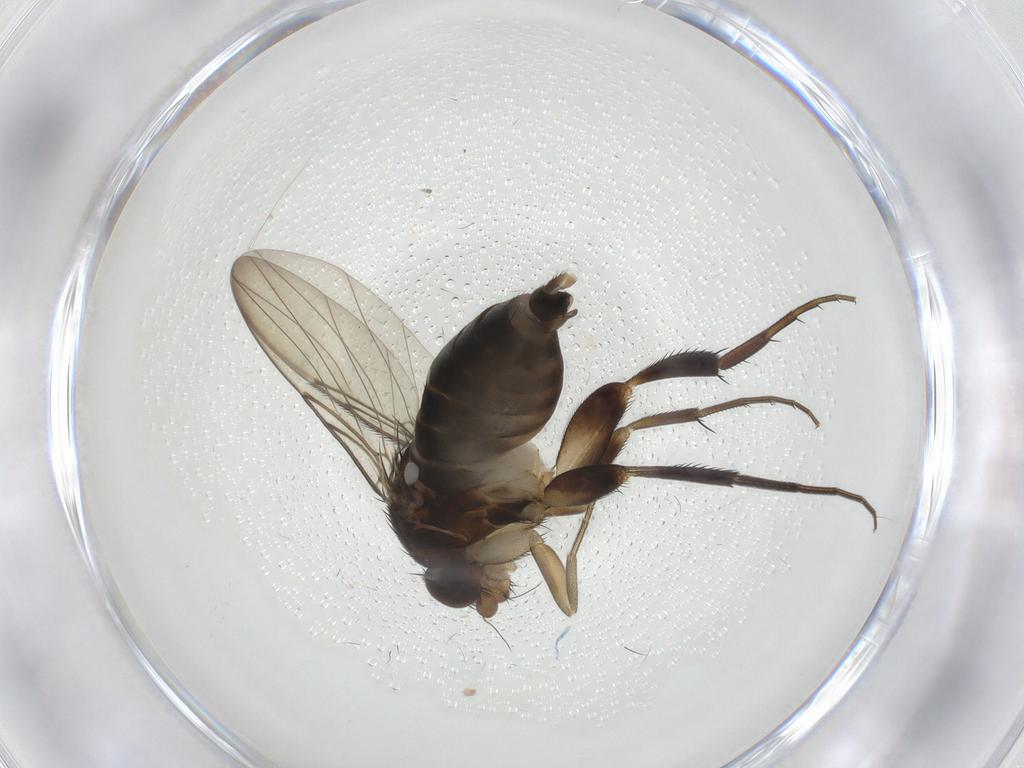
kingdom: Animalia
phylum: Arthropoda
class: Insecta
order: Diptera
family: Phoridae
